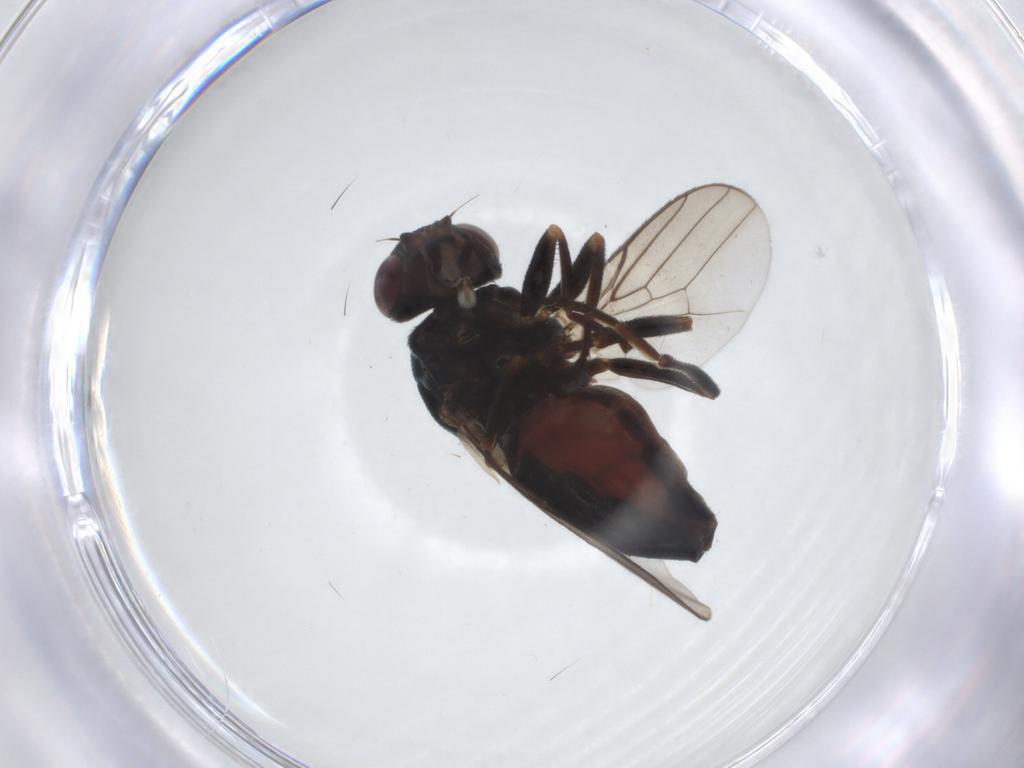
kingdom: Animalia
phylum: Arthropoda
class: Insecta
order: Diptera
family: Chloropidae
